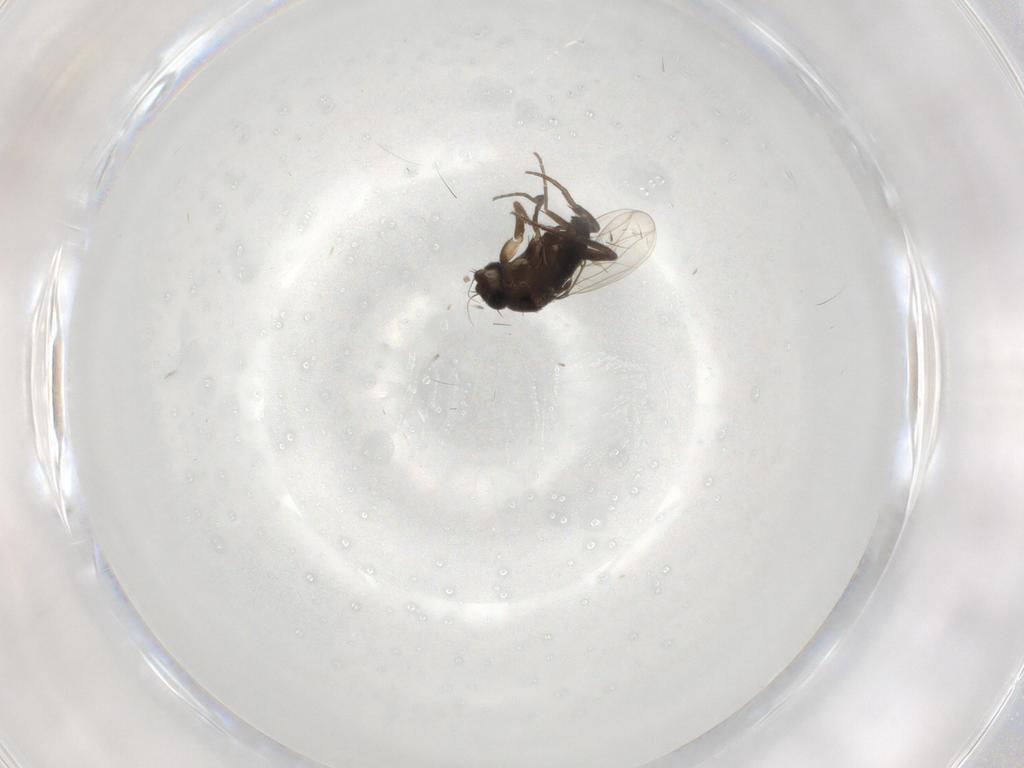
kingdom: Animalia
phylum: Arthropoda
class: Insecta
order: Diptera
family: Phoridae
